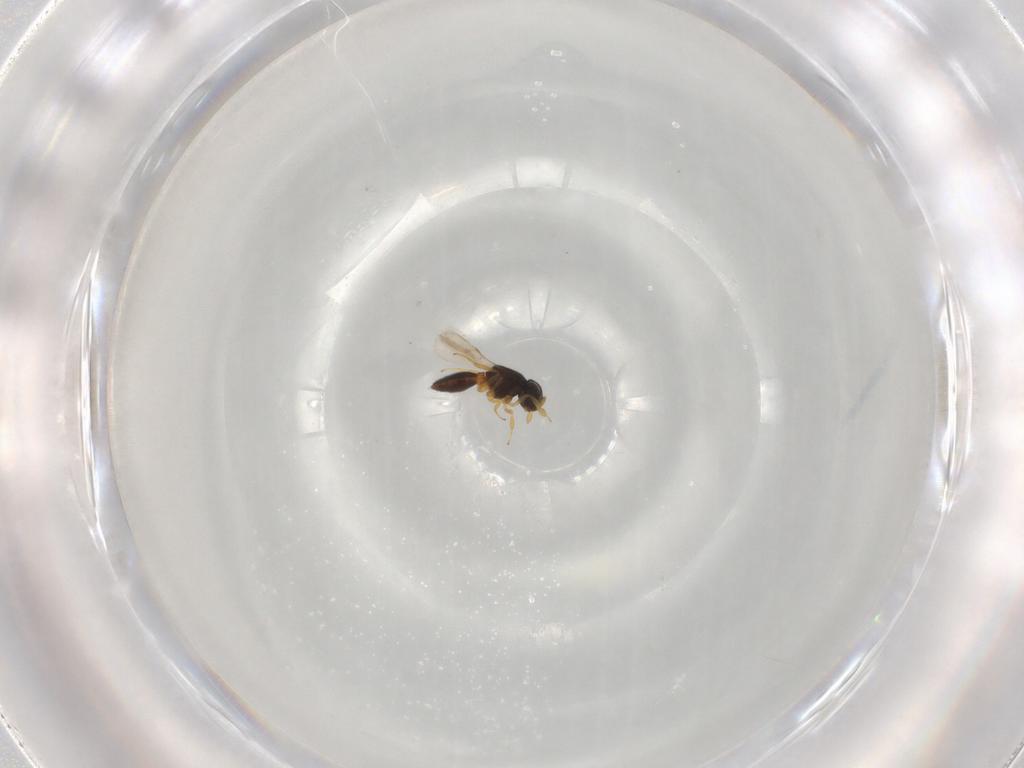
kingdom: Animalia
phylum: Arthropoda
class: Insecta
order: Hymenoptera
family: Scelionidae
